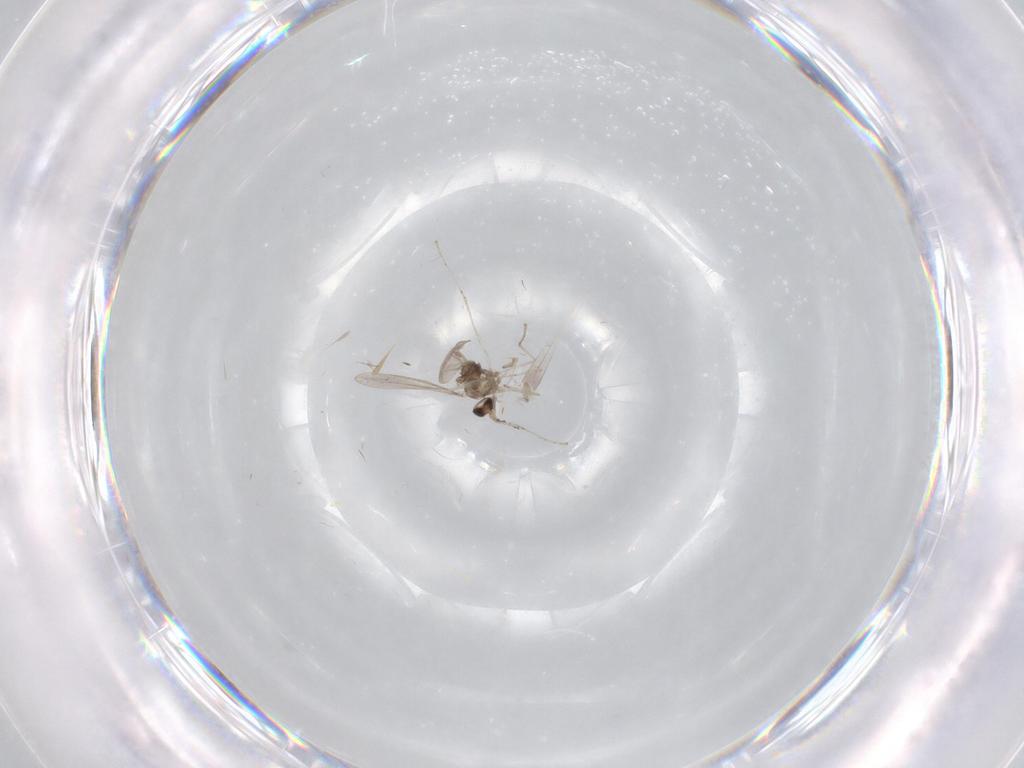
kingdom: Animalia
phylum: Arthropoda
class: Insecta
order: Diptera
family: Cecidomyiidae
